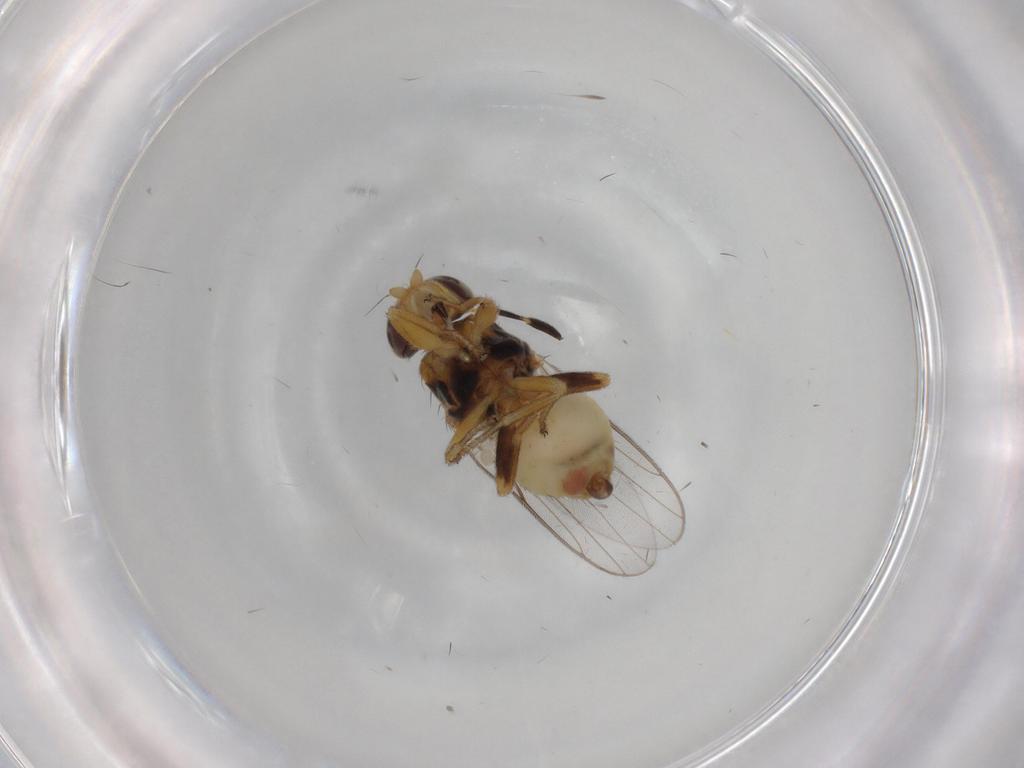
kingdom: Animalia
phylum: Arthropoda
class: Insecta
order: Diptera
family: Chloropidae
